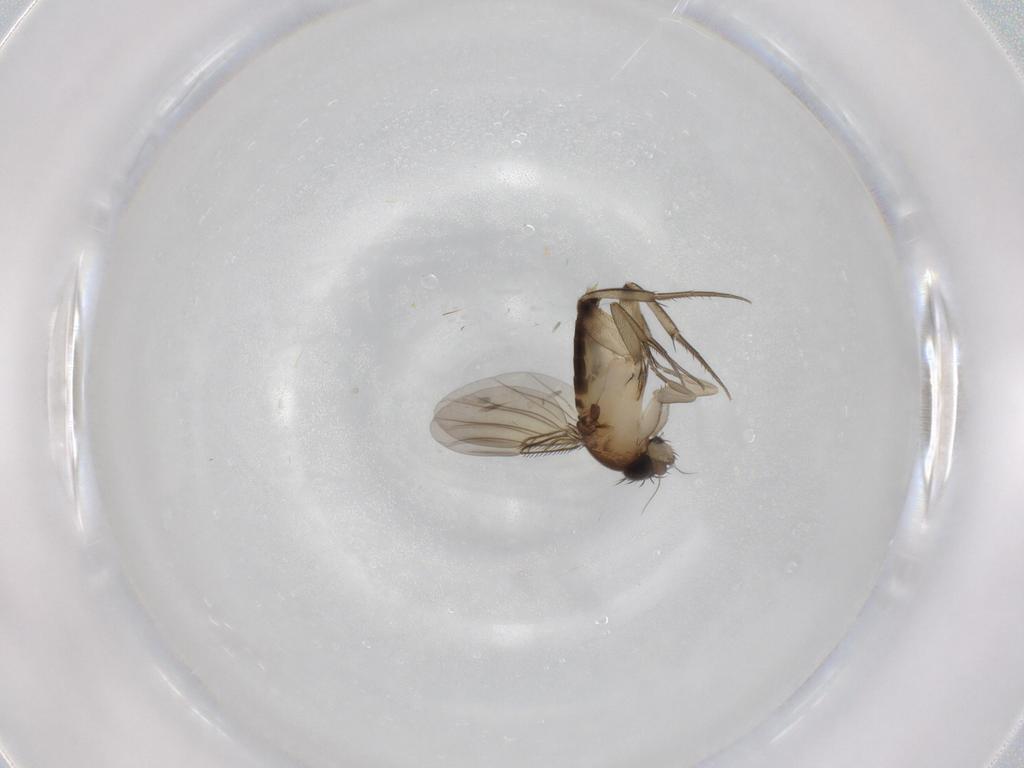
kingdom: Animalia
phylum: Arthropoda
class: Insecta
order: Diptera
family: Phoridae
